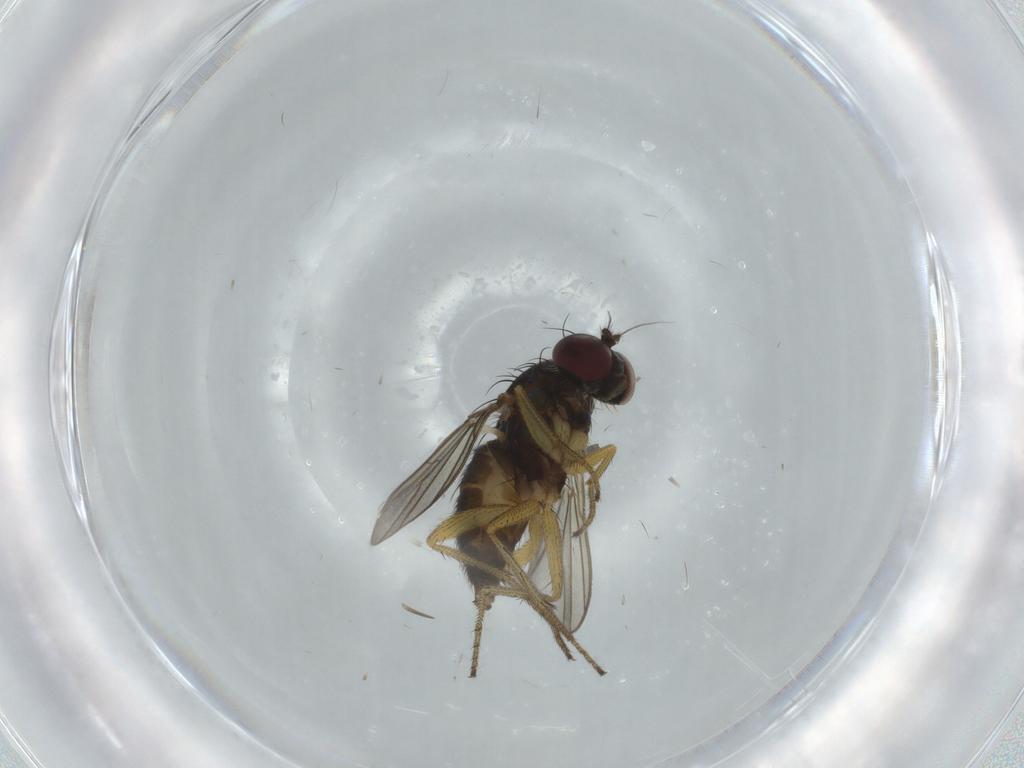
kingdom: Animalia
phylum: Arthropoda
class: Insecta
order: Diptera
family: Dolichopodidae
